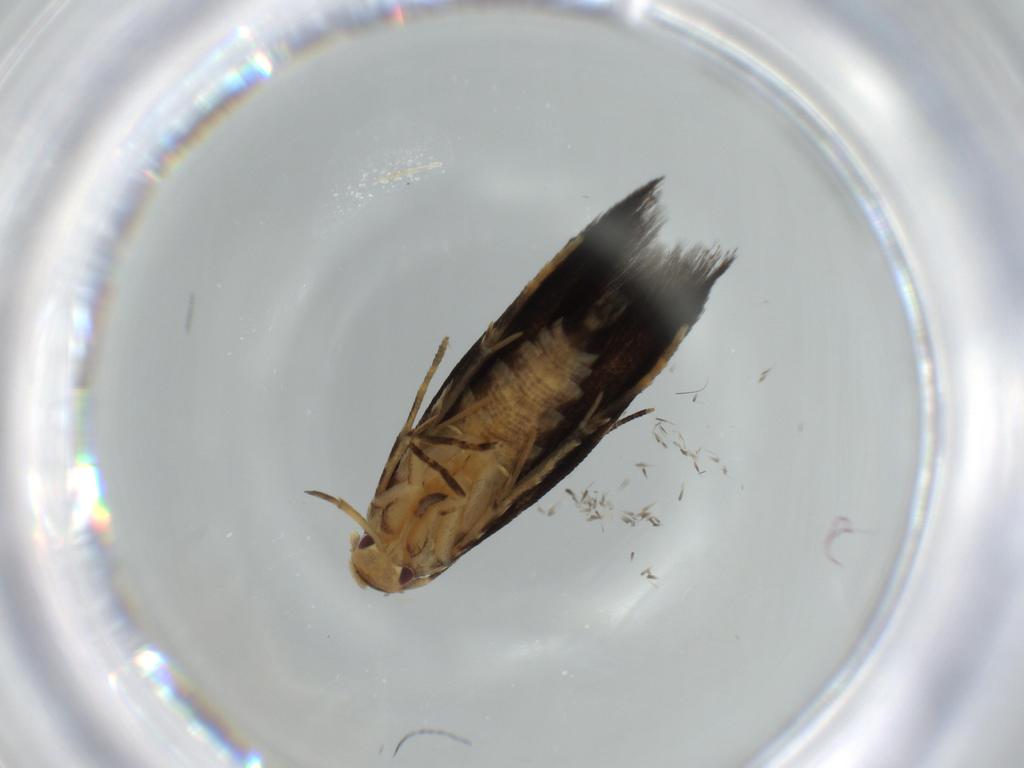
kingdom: Animalia
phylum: Arthropoda
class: Insecta
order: Lepidoptera
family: Momphidae
